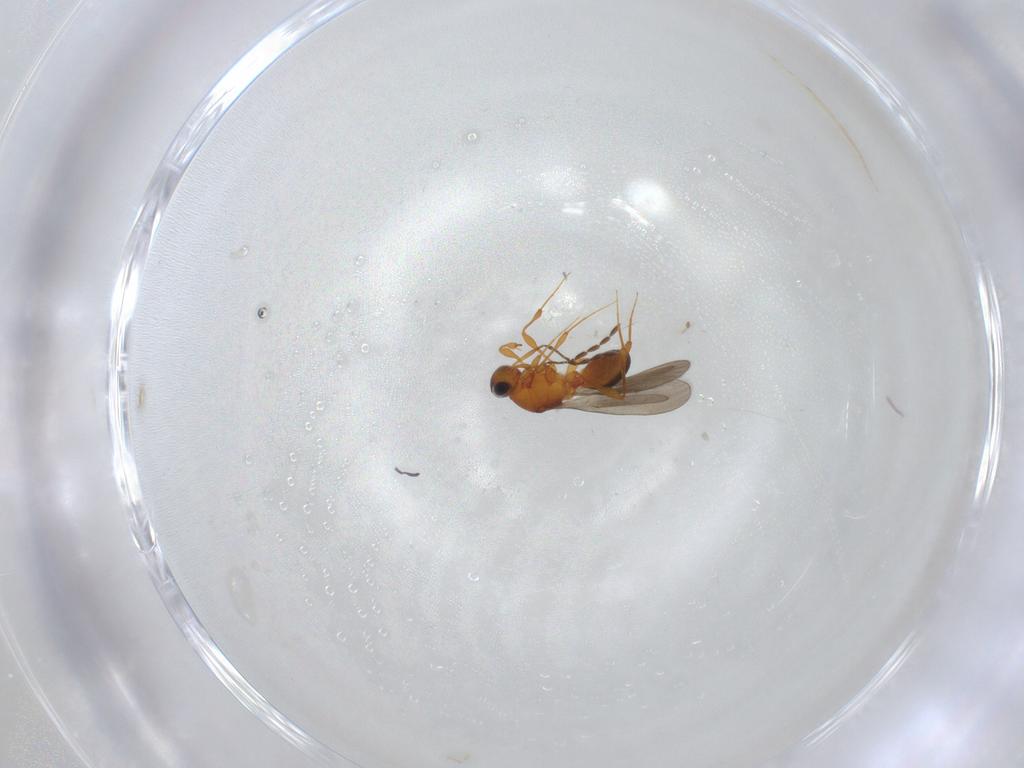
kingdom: Animalia
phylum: Arthropoda
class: Insecta
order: Hymenoptera
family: Platygastridae
